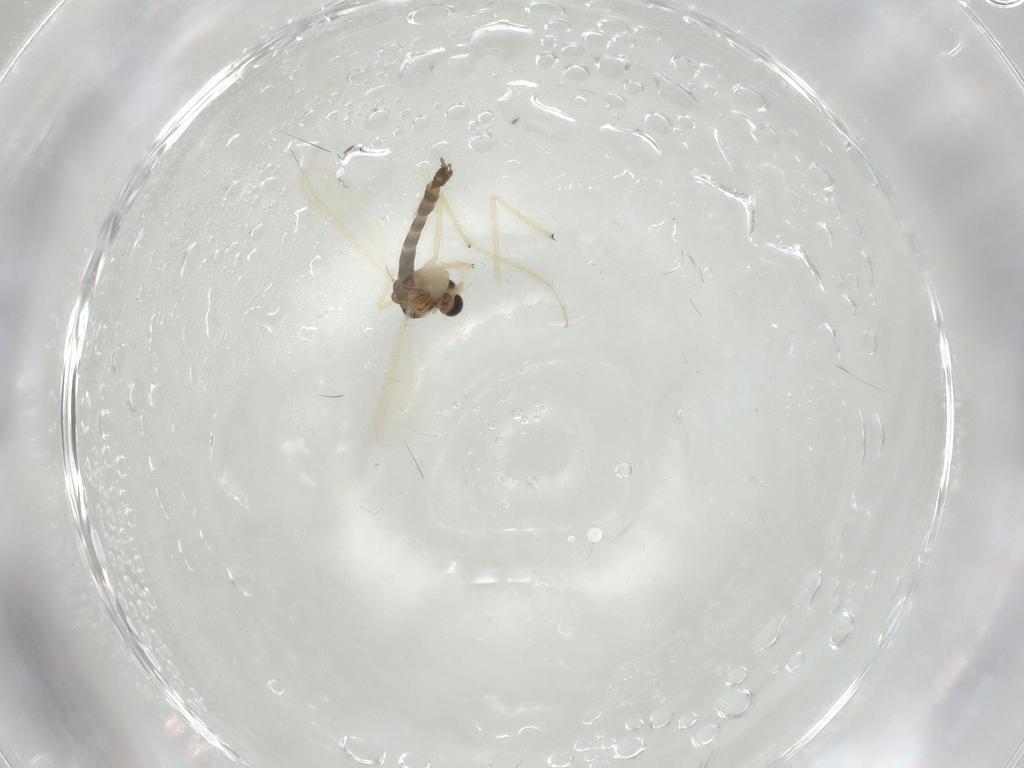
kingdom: Animalia
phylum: Arthropoda
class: Insecta
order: Diptera
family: Chironomidae
